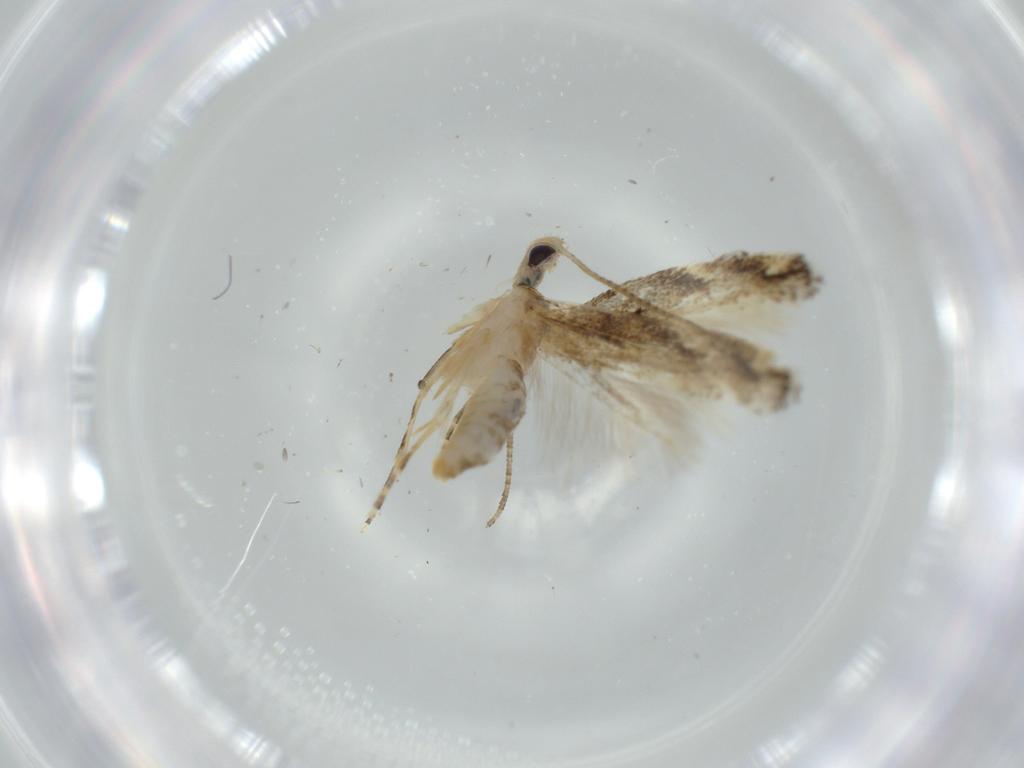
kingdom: Animalia
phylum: Arthropoda
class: Insecta
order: Lepidoptera
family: Bucculatricidae
